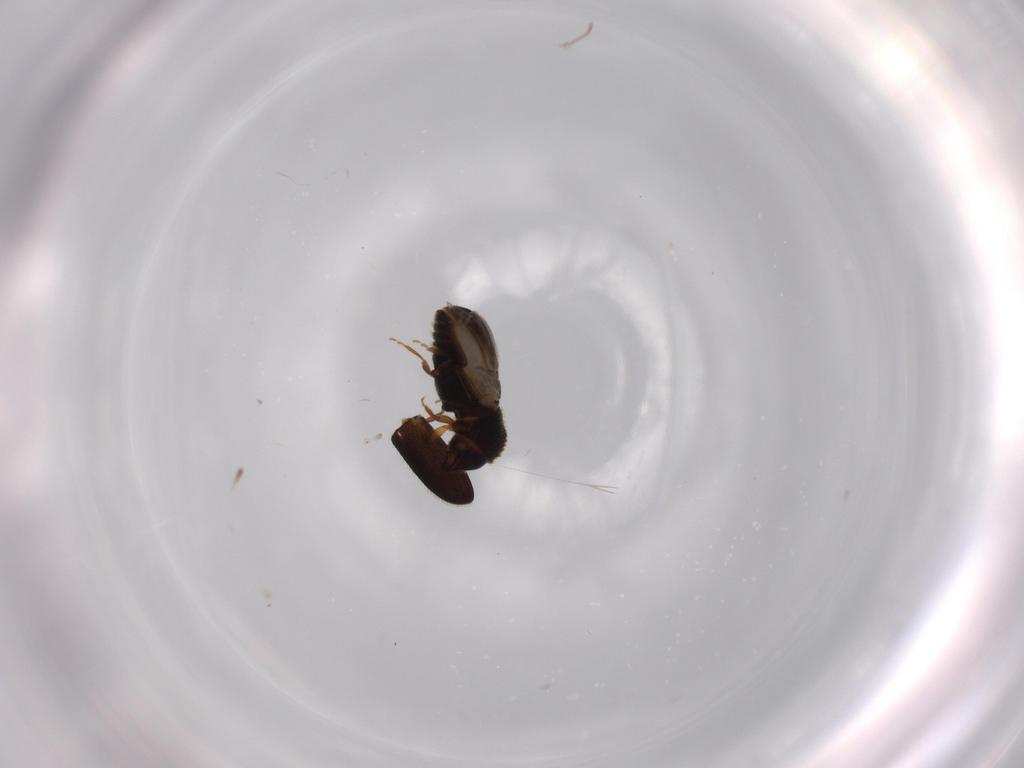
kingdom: Animalia
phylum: Arthropoda
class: Insecta
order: Coleoptera
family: Curculionidae
